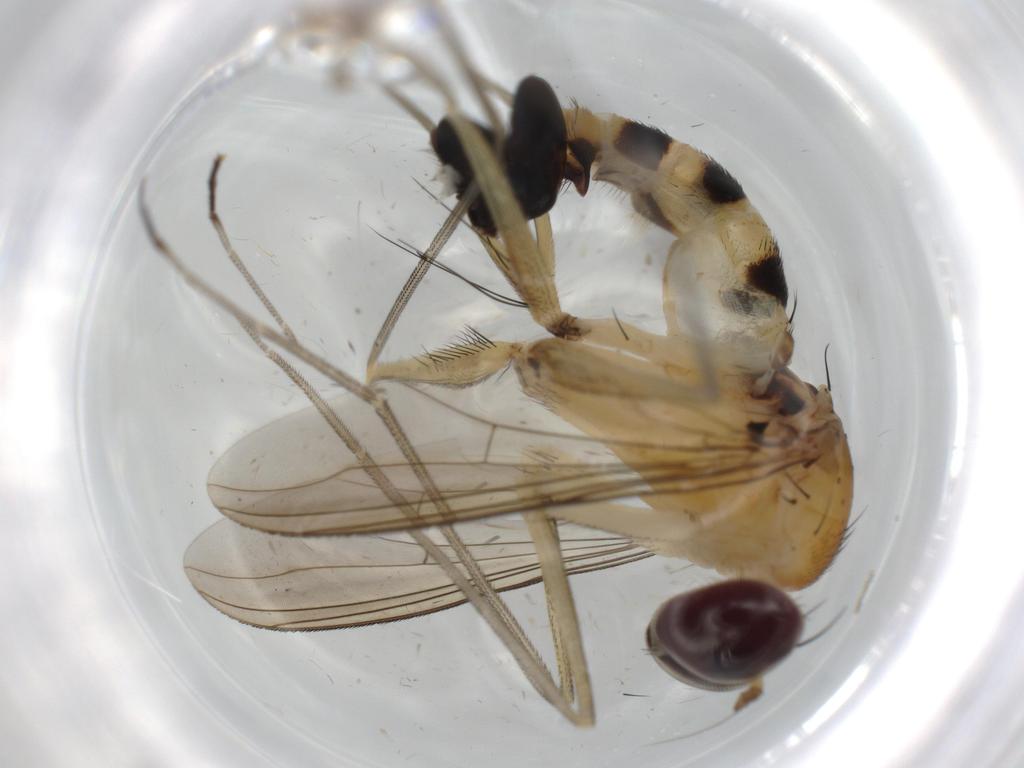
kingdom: Animalia
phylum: Arthropoda
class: Insecta
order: Diptera
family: Dolichopodidae
